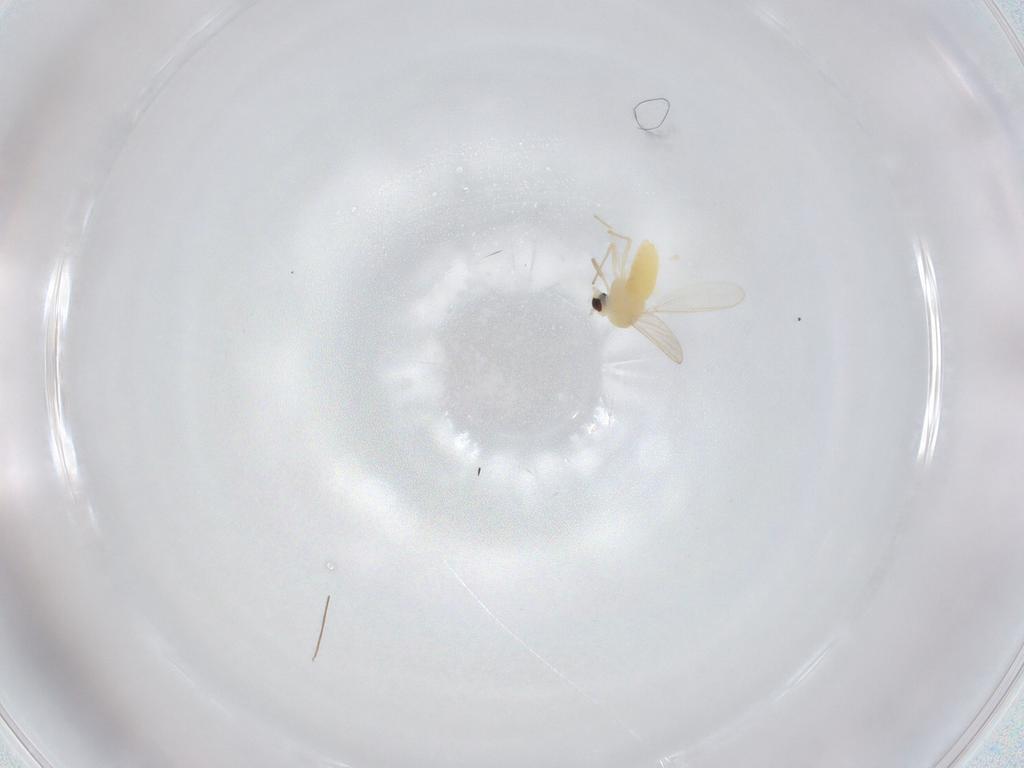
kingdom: Animalia
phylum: Arthropoda
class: Insecta
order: Diptera
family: Chironomidae
